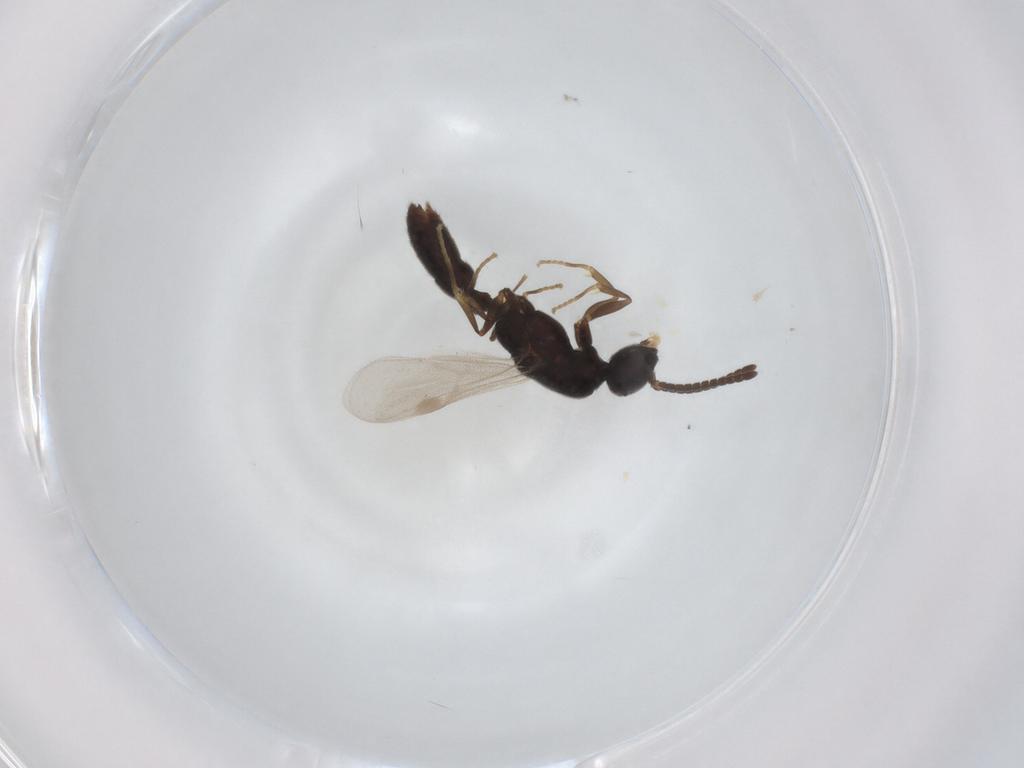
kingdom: Animalia
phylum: Arthropoda
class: Insecta
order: Hymenoptera
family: Formicidae
